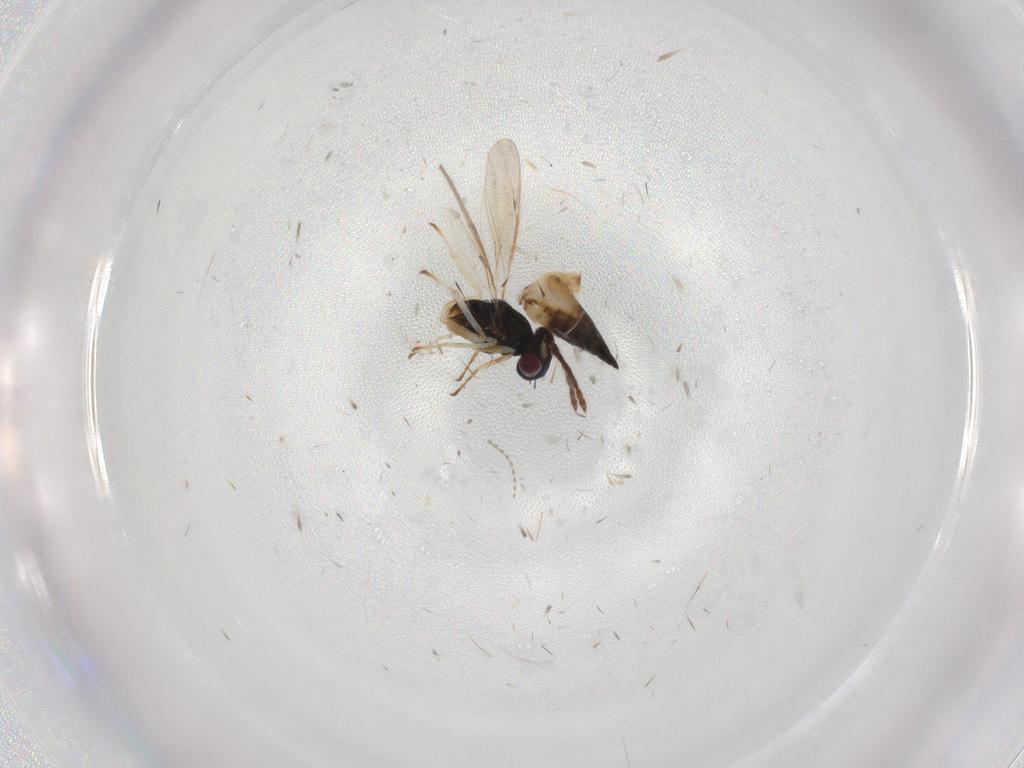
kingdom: Animalia
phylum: Arthropoda
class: Insecta
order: Hymenoptera
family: Eulophidae
